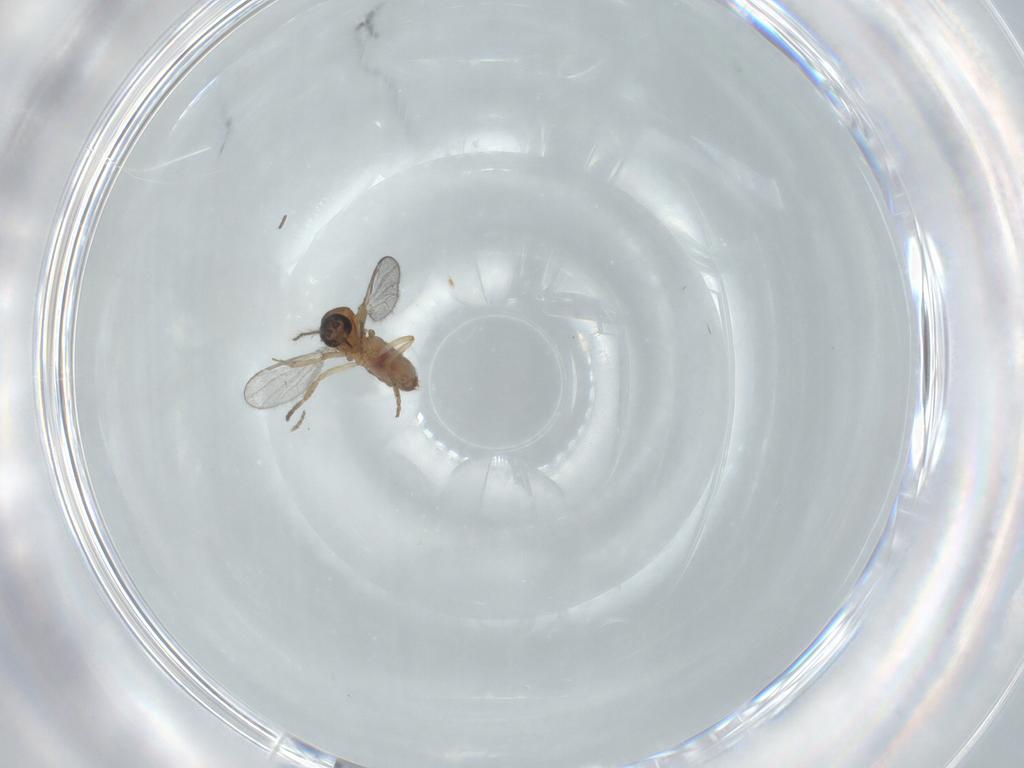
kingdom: Animalia
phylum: Arthropoda
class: Insecta
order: Diptera
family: Ceratopogonidae
